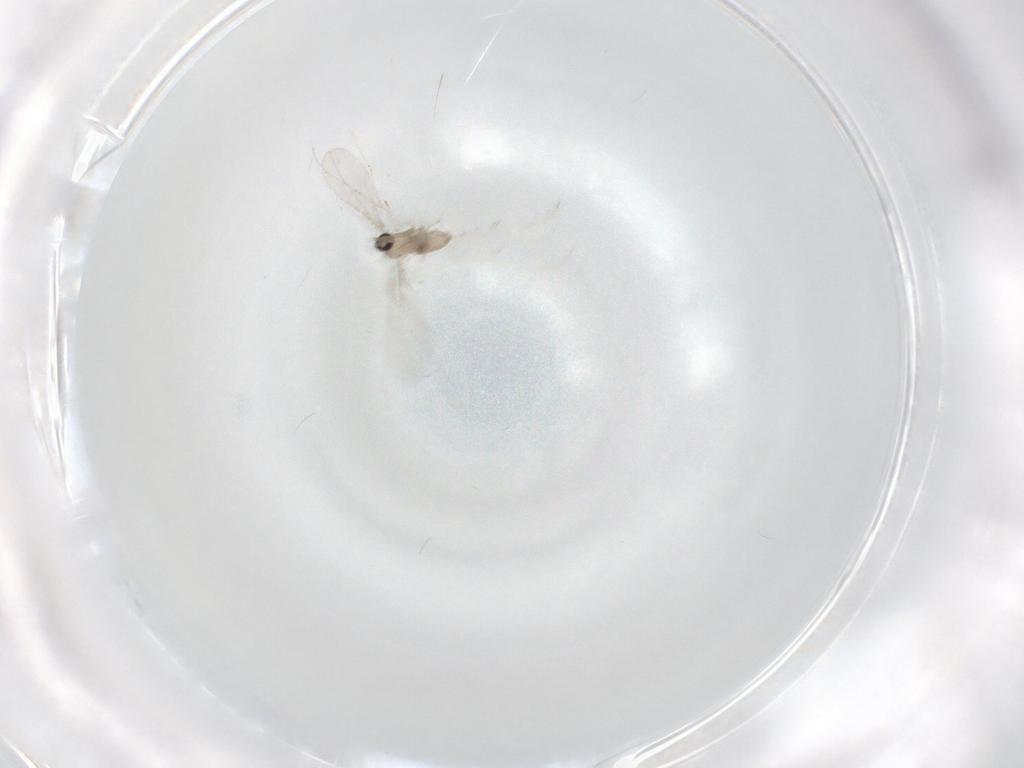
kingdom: Animalia
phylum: Arthropoda
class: Insecta
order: Diptera
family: Cecidomyiidae
